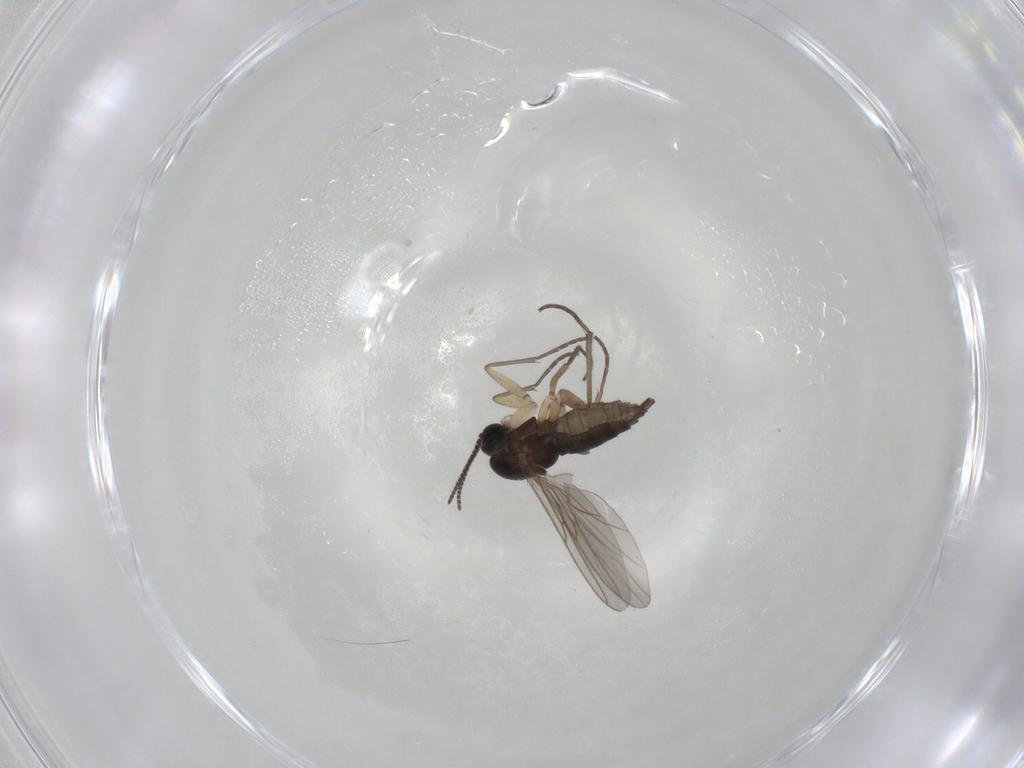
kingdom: Animalia
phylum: Arthropoda
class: Insecta
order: Diptera
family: Sciaridae
